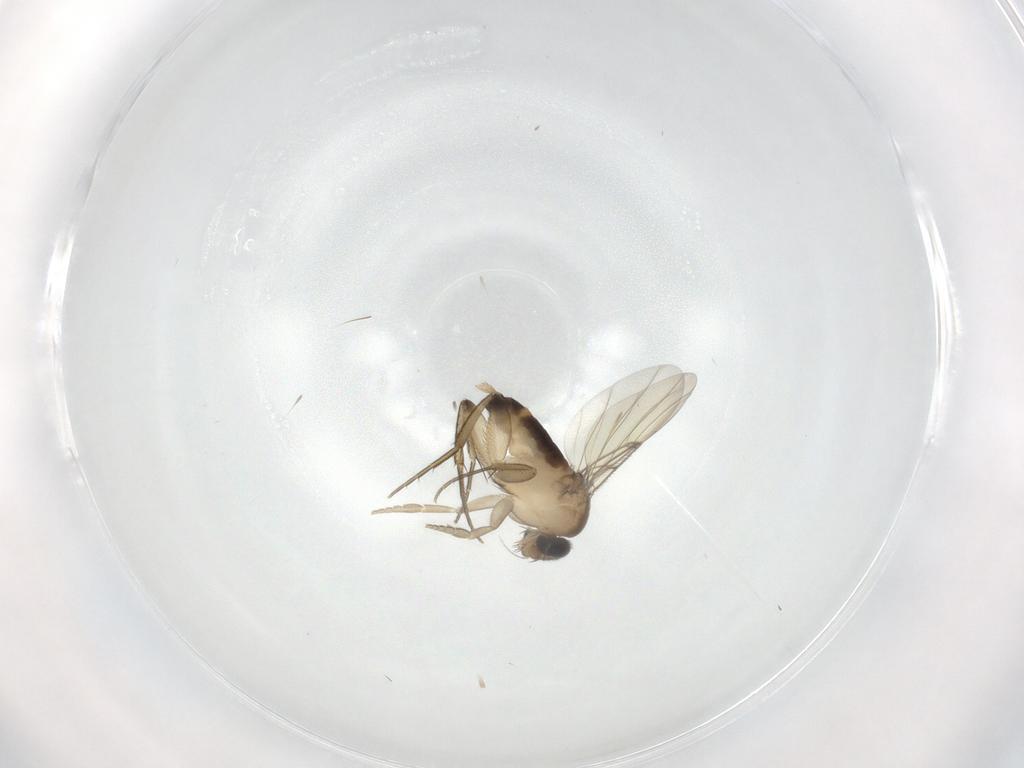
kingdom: Animalia
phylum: Arthropoda
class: Insecta
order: Diptera
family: Phoridae
